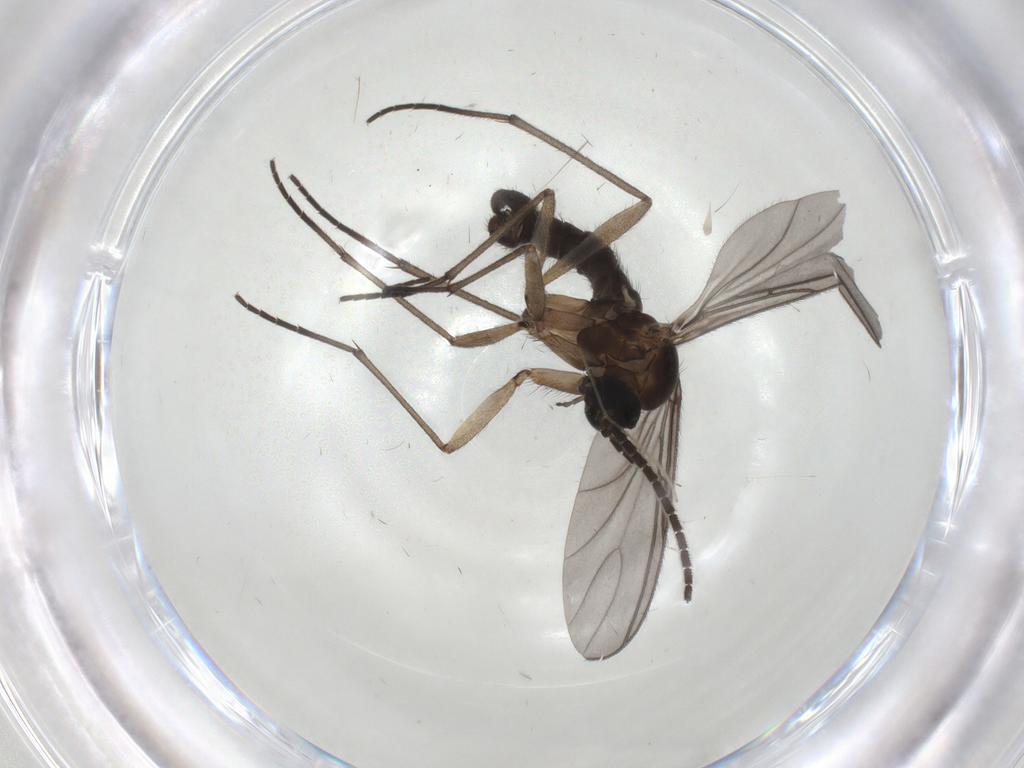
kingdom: Animalia
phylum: Arthropoda
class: Insecta
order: Diptera
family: Sciaridae
